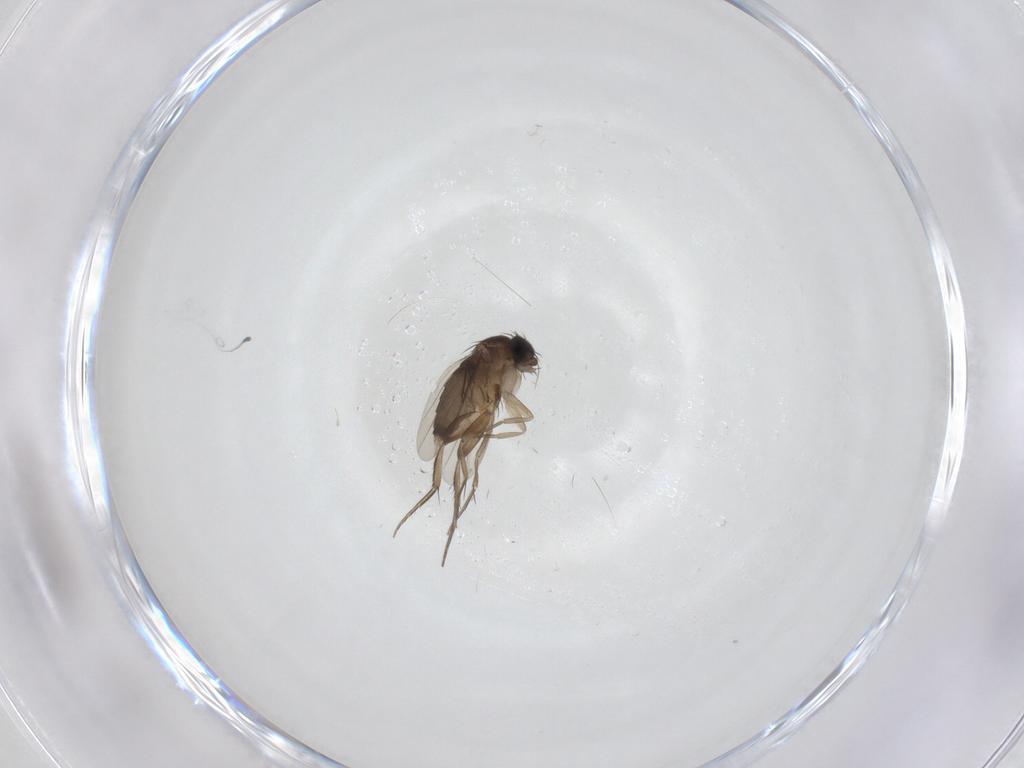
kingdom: Animalia
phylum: Arthropoda
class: Insecta
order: Diptera
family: Phoridae
